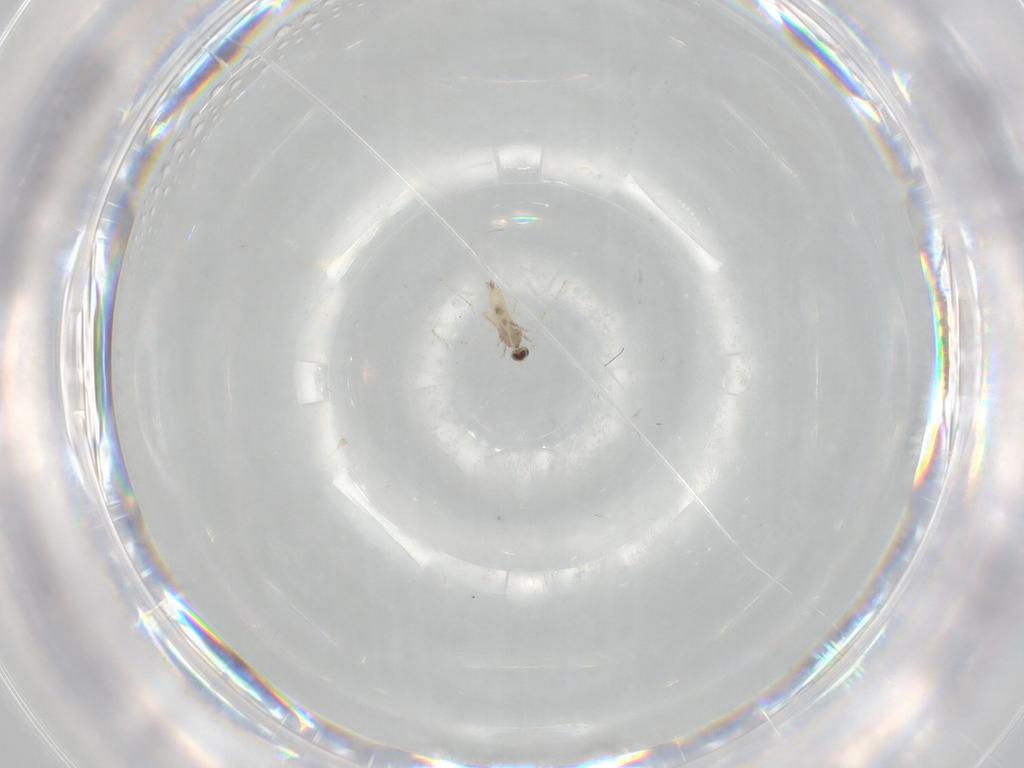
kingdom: Animalia
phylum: Arthropoda
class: Insecta
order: Diptera
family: Cecidomyiidae
